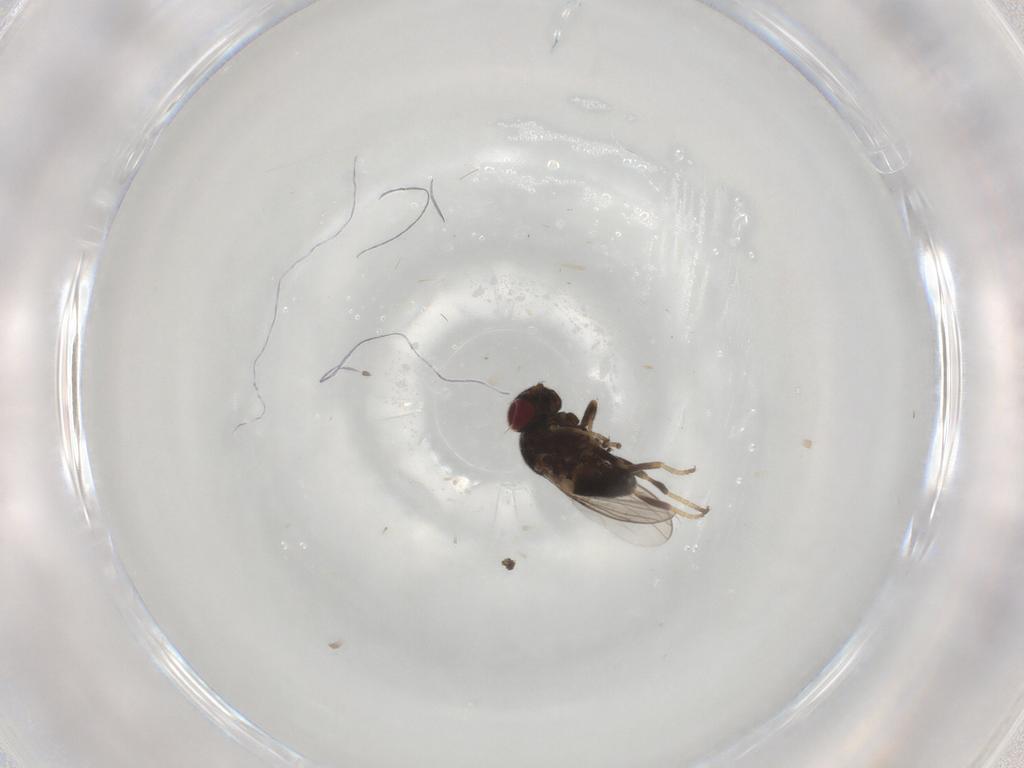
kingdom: Animalia
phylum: Arthropoda
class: Insecta
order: Diptera
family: Chloropidae
